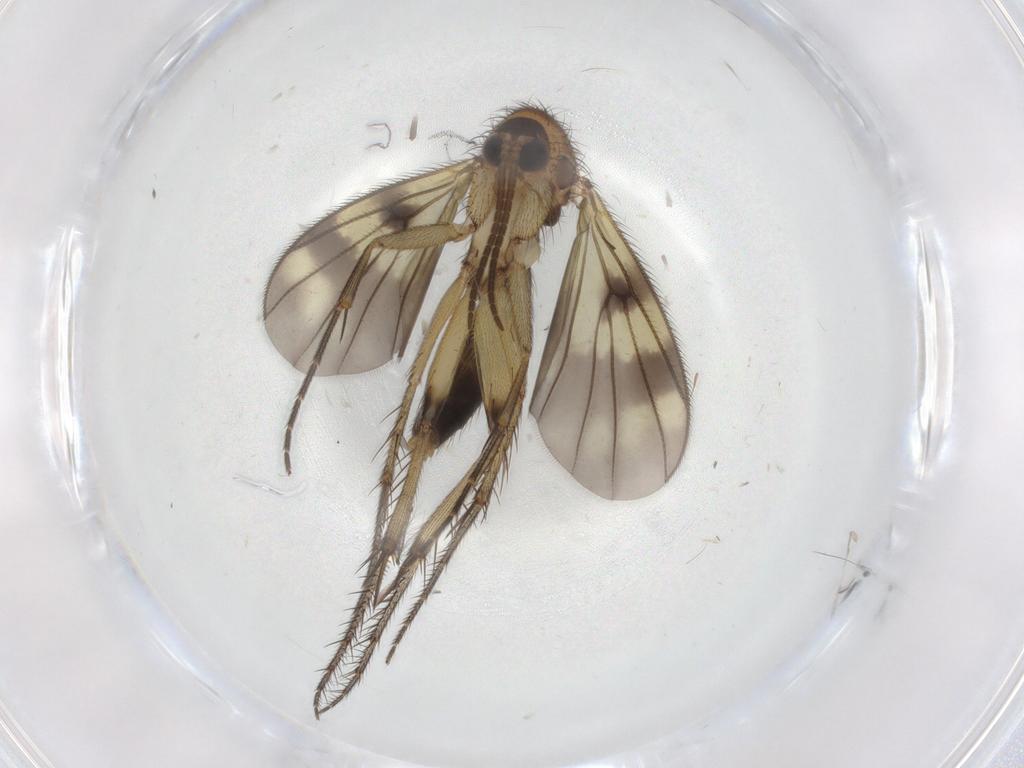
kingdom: Animalia
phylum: Arthropoda
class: Insecta
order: Diptera
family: Mycetophilidae
